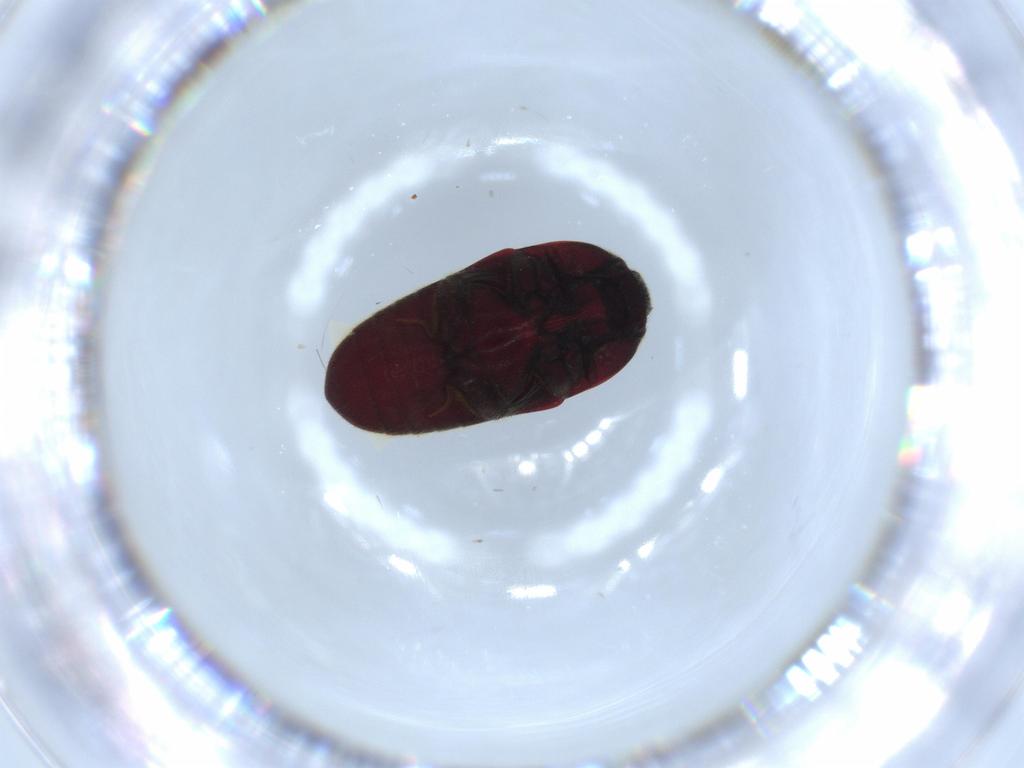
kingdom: Animalia
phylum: Arthropoda
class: Insecta
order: Coleoptera
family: Throscidae
